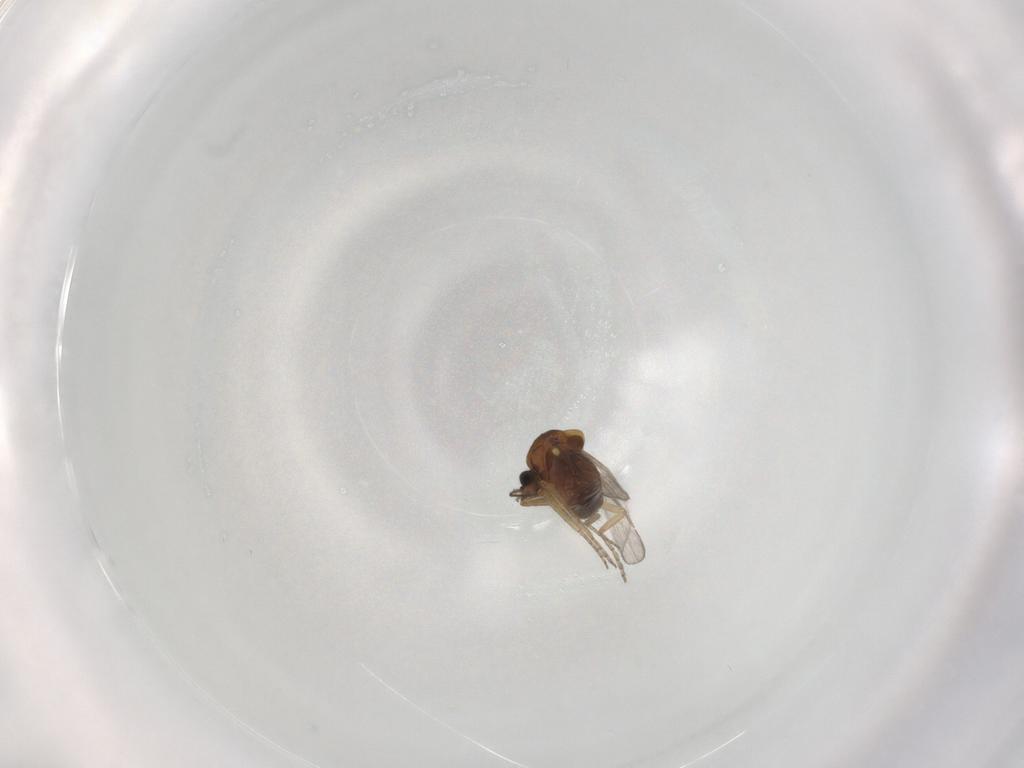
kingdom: Animalia
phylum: Arthropoda
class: Insecta
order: Diptera
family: Ceratopogonidae
